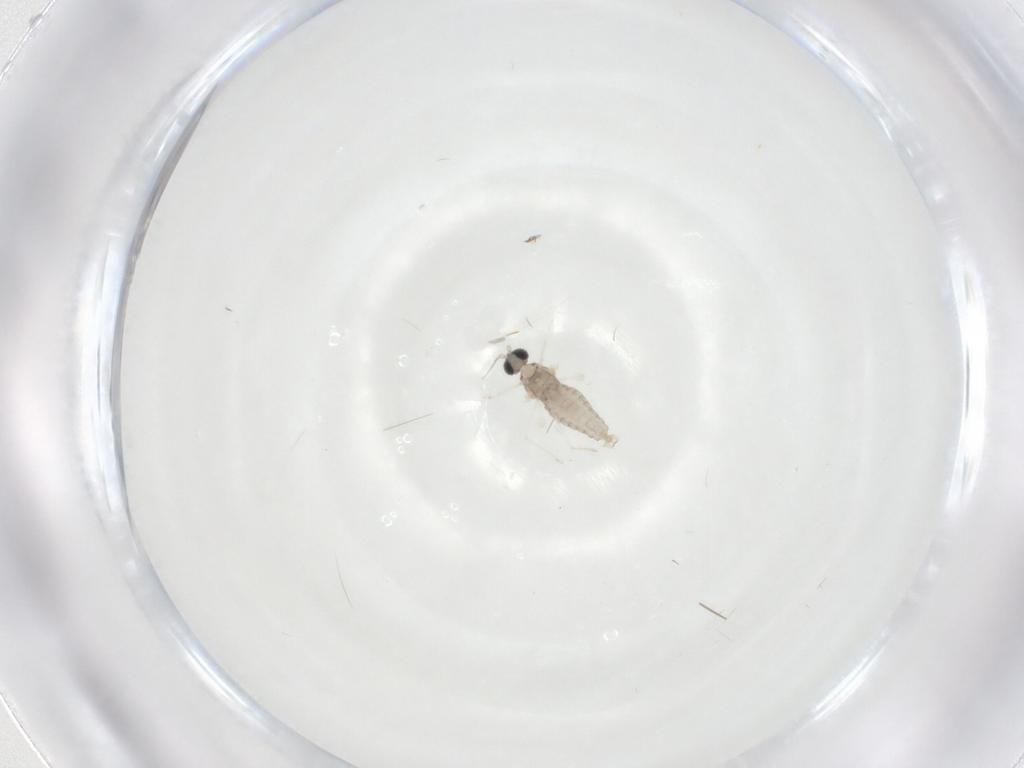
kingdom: Animalia
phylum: Arthropoda
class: Insecta
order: Diptera
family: Cecidomyiidae
